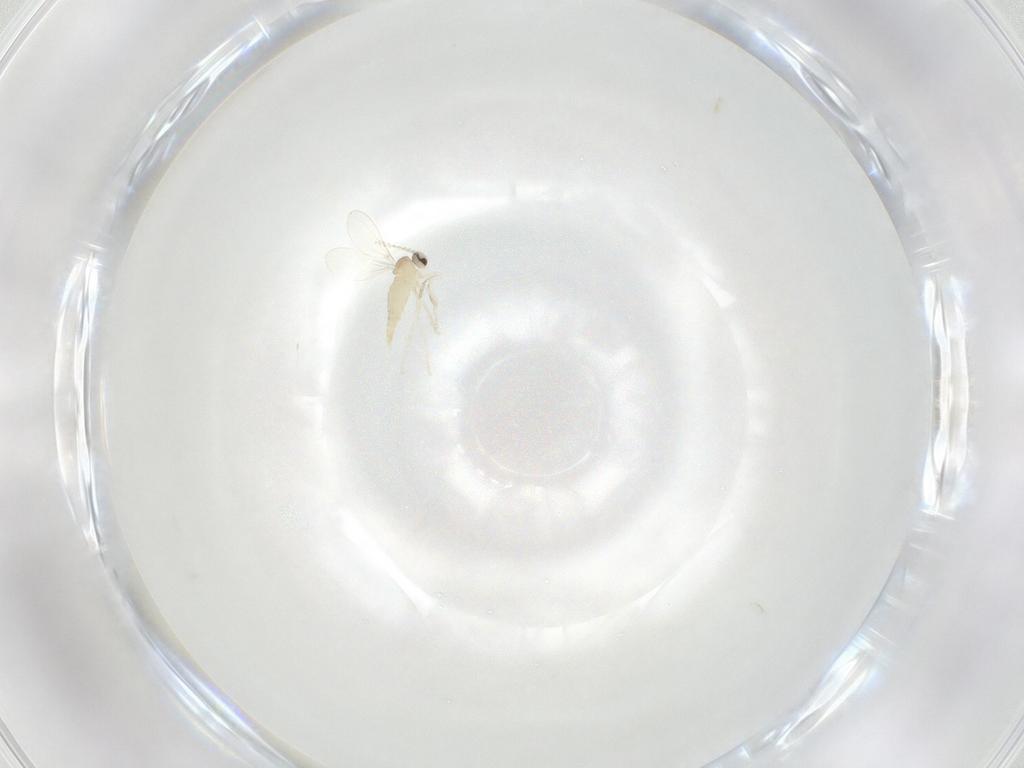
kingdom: Animalia
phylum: Arthropoda
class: Insecta
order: Diptera
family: Cecidomyiidae
